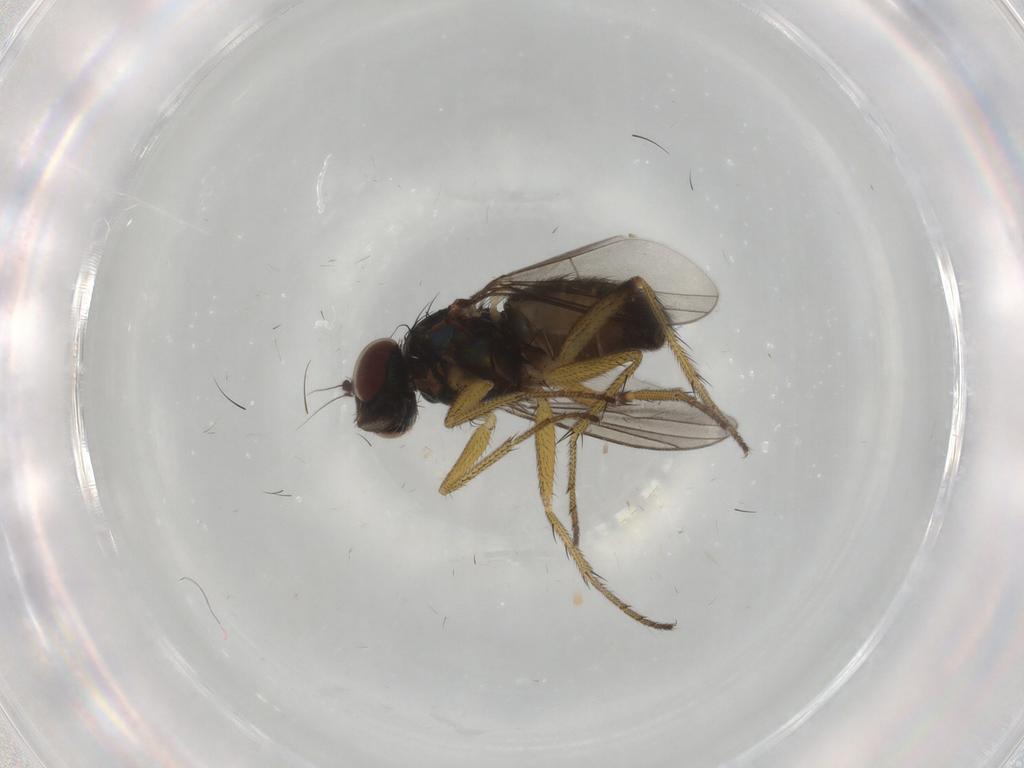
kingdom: Animalia
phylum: Arthropoda
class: Insecta
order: Diptera
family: Dolichopodidae
